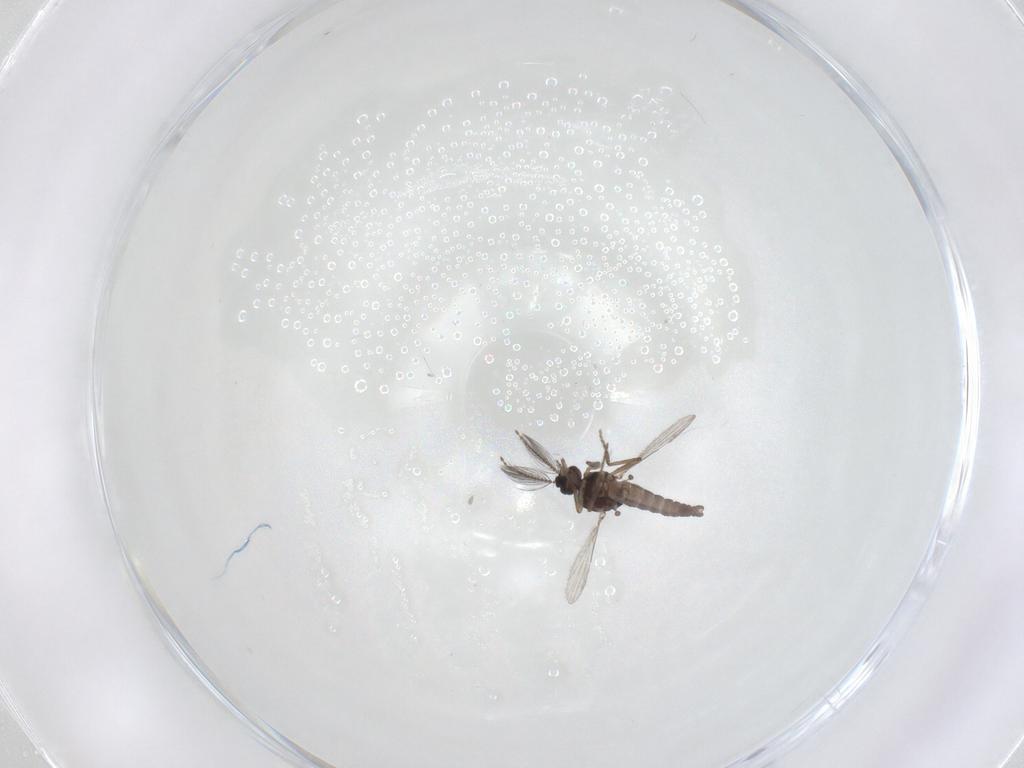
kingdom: Animalia
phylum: Arthropoda
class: Insecta
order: Diptera
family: Ceratopogonidae
